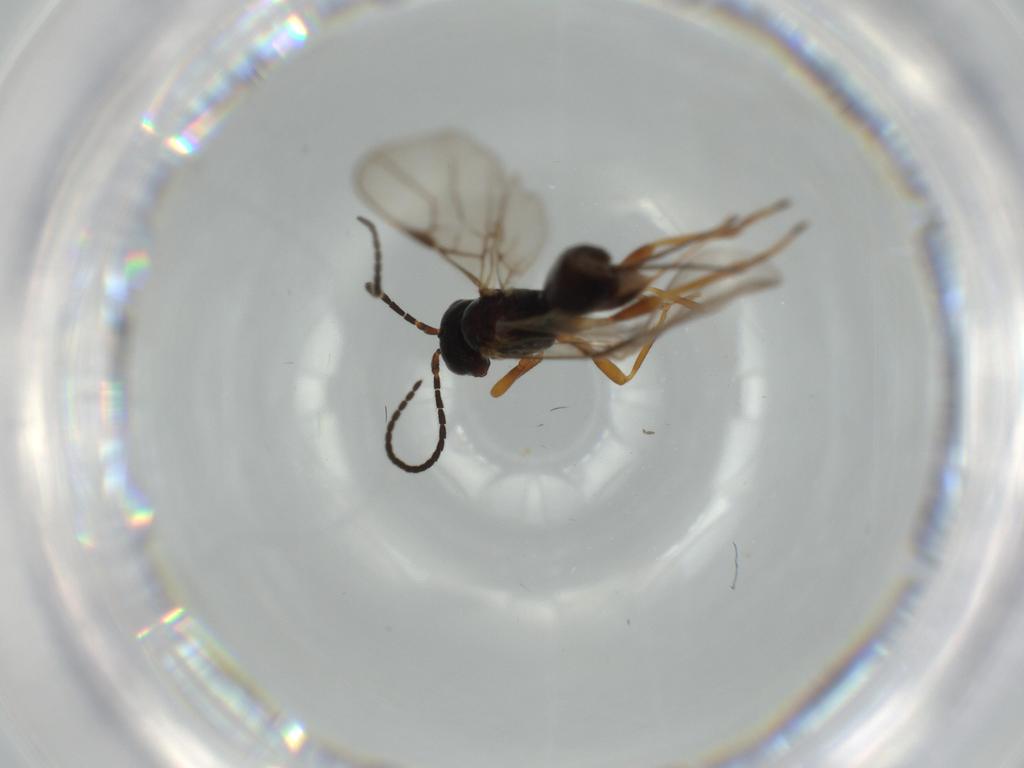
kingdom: Animalia
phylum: Arthropoda
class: Insecta
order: Hymenoptera
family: Braconidae
